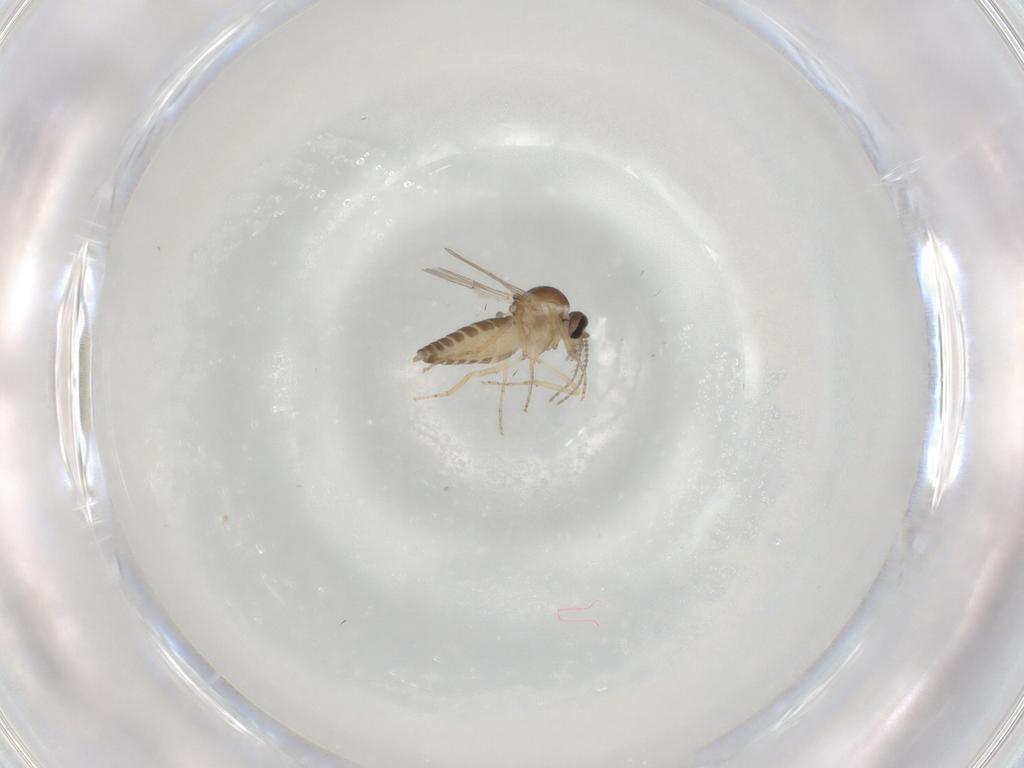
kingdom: Animalia
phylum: Arthropoda
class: Insecta
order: Diptera
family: Ceratopogonidae
